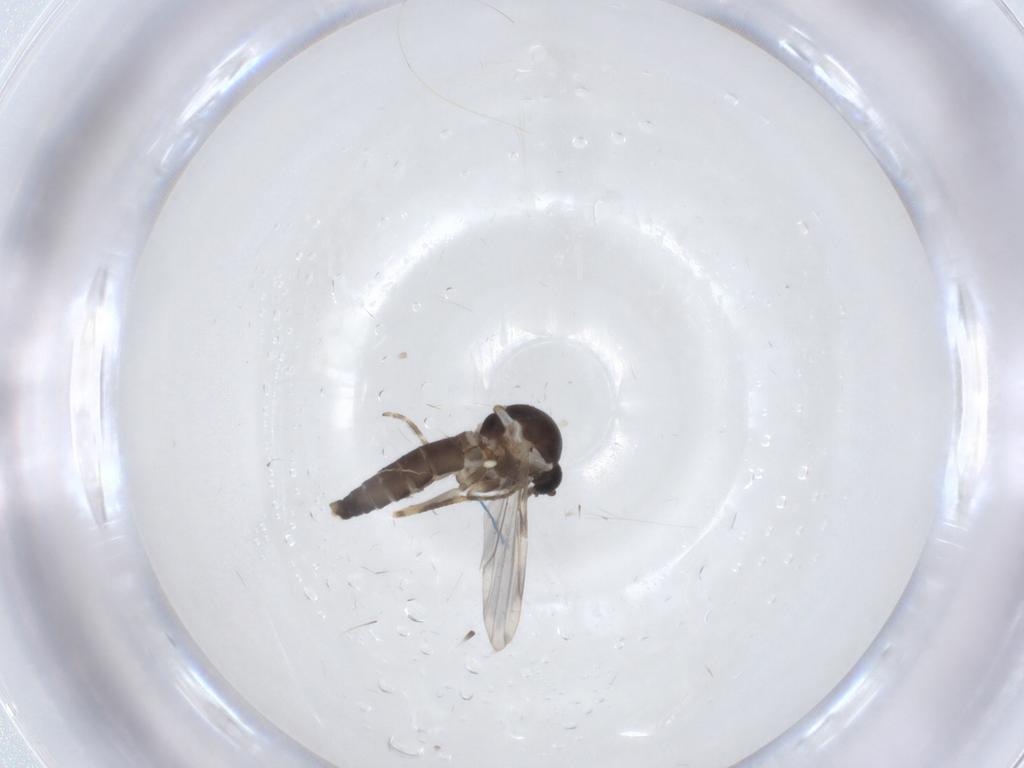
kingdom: Animalia
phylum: Arthropoda
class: Insecta
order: Diptera
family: Ceratopogonidae
